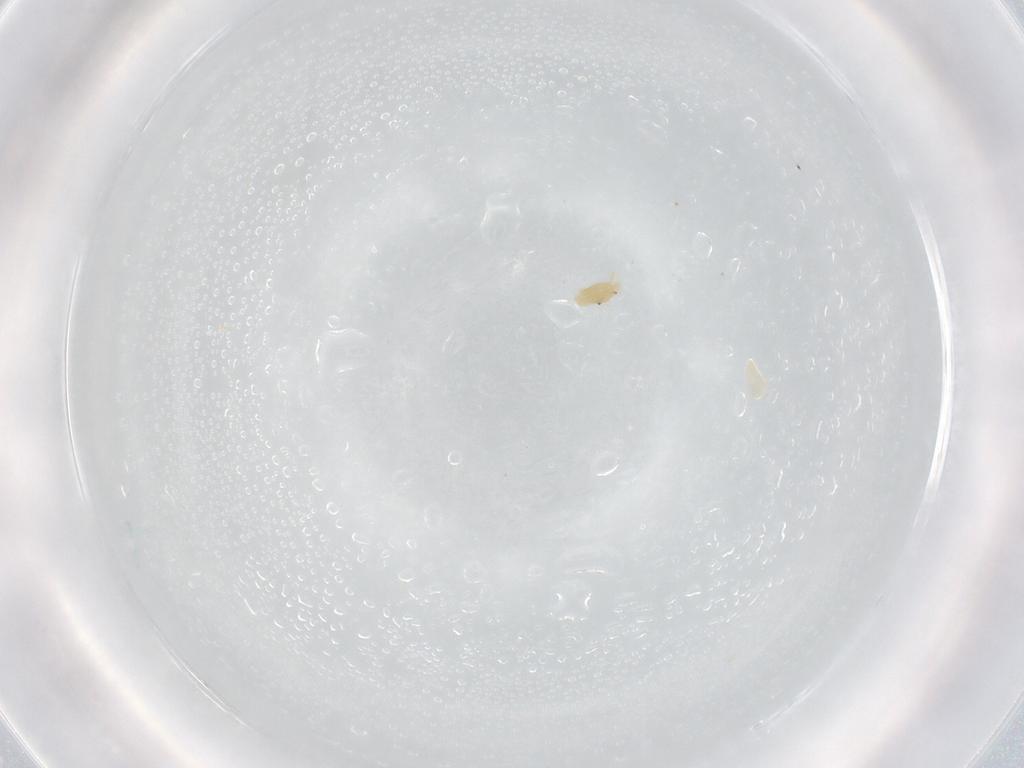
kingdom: Animalia
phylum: Arthropoda
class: Arachnida
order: Trombidiformes
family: Eupodidae
